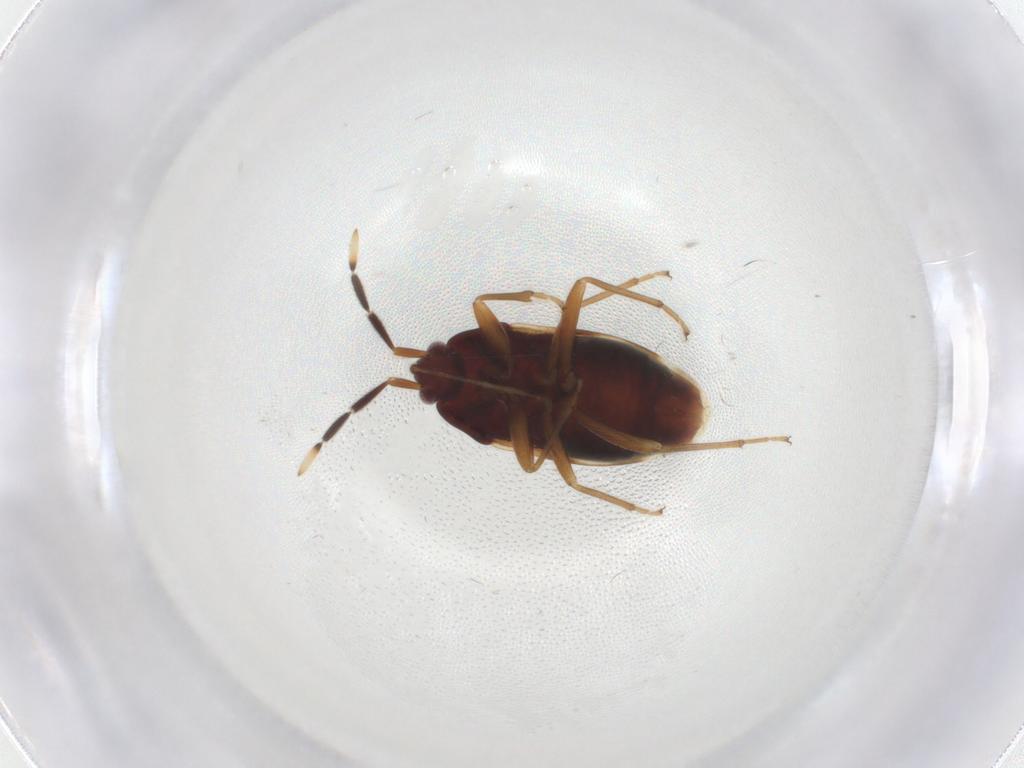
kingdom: Animalia
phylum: Arthropoda
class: Insecta
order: Hemiptera
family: Rhyparochromidae
